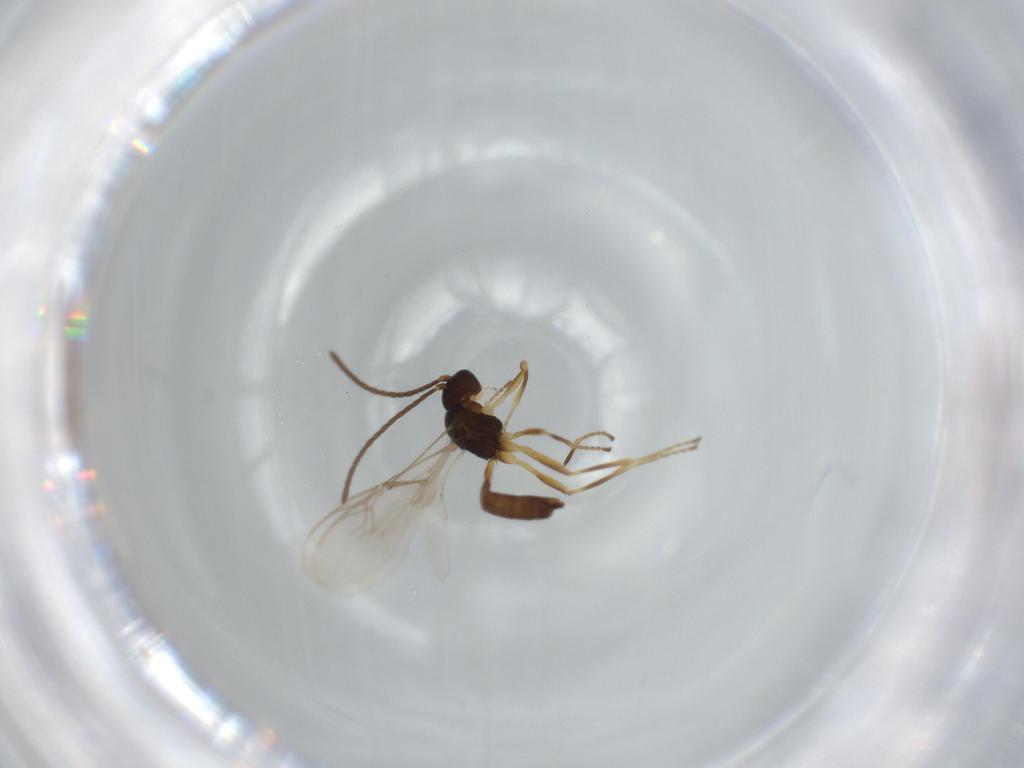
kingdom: Animalia
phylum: Arthropoda
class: Insecta
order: Hymenoptera
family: Braconidae
